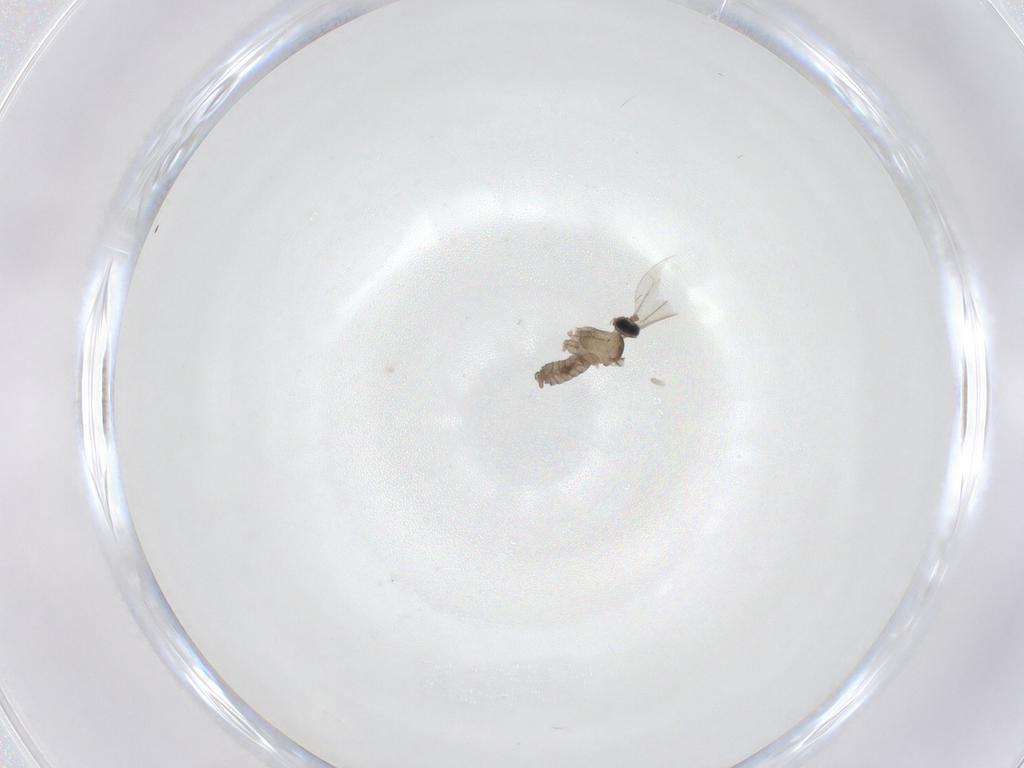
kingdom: Animalia
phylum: Arthropoda
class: Insecta
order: Diptera
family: Cecidomyiidae
